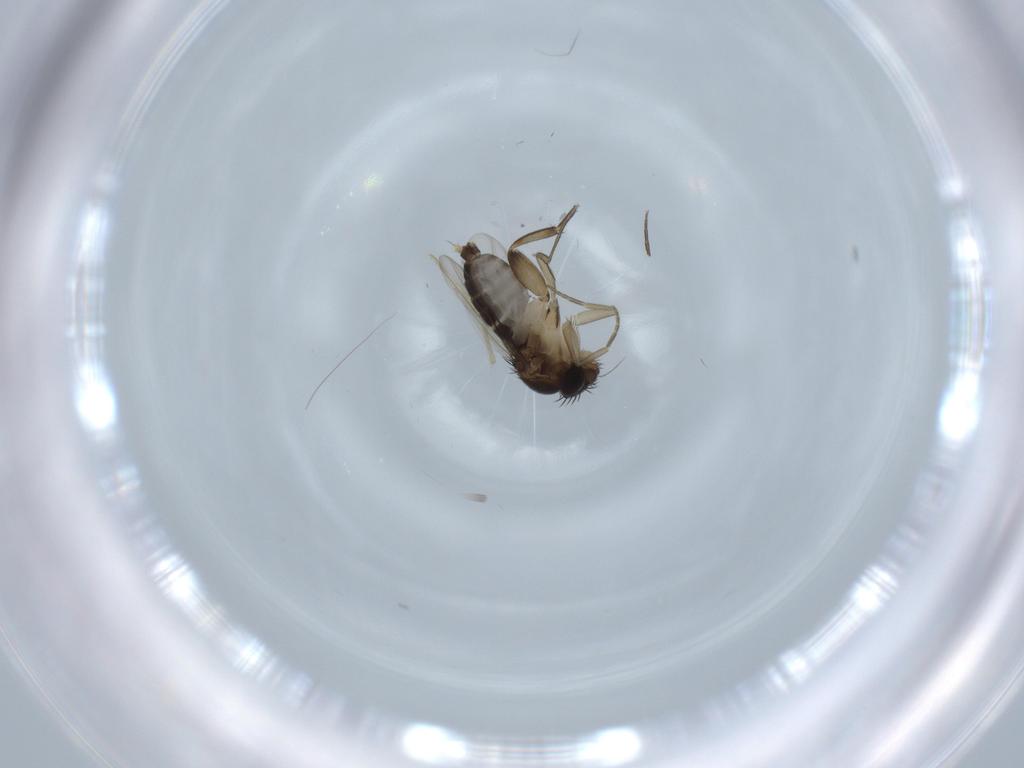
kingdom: Animalia
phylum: Arthropoda
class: Insecta
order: Diptera
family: Phoridae
